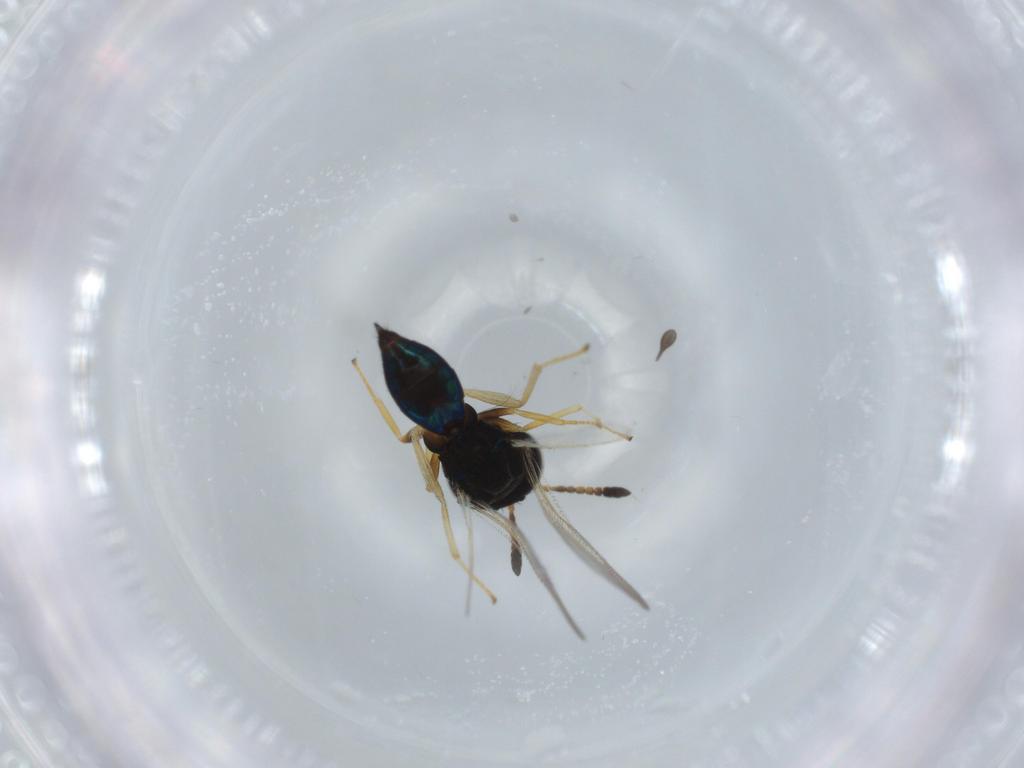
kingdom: Animalia
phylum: Arthropoda
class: Insecta
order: Hymenoptera
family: Pteromalidae
